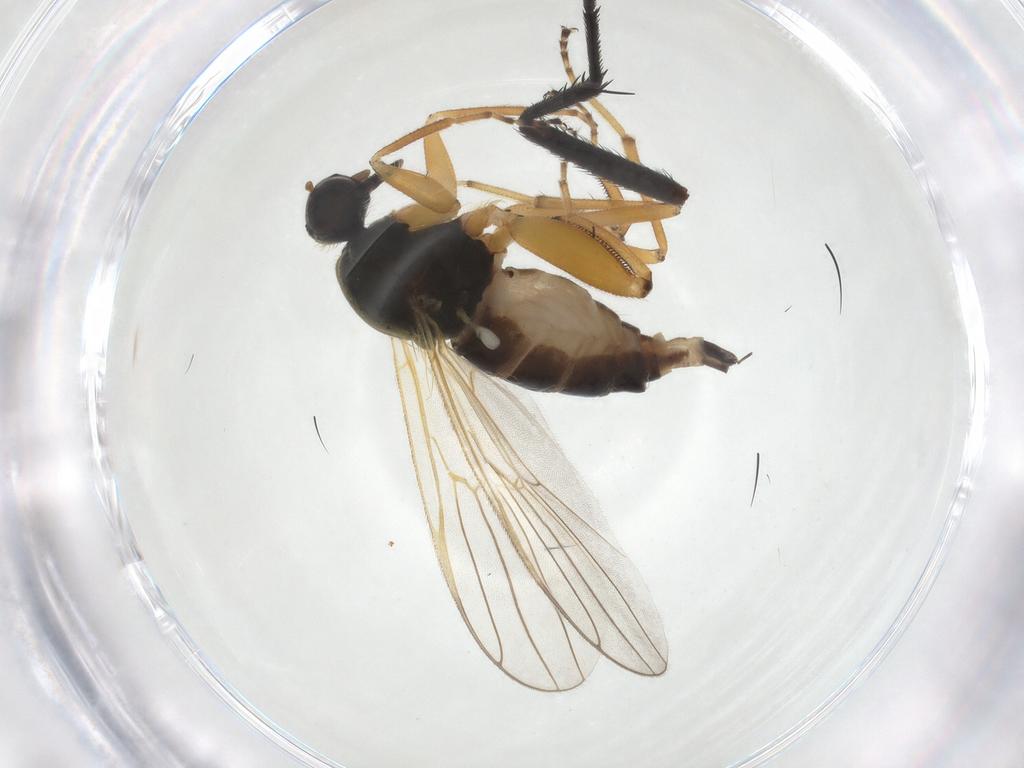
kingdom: Animalia
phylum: Arthropoda
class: Insecta
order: Diptera
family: Hybotidae
